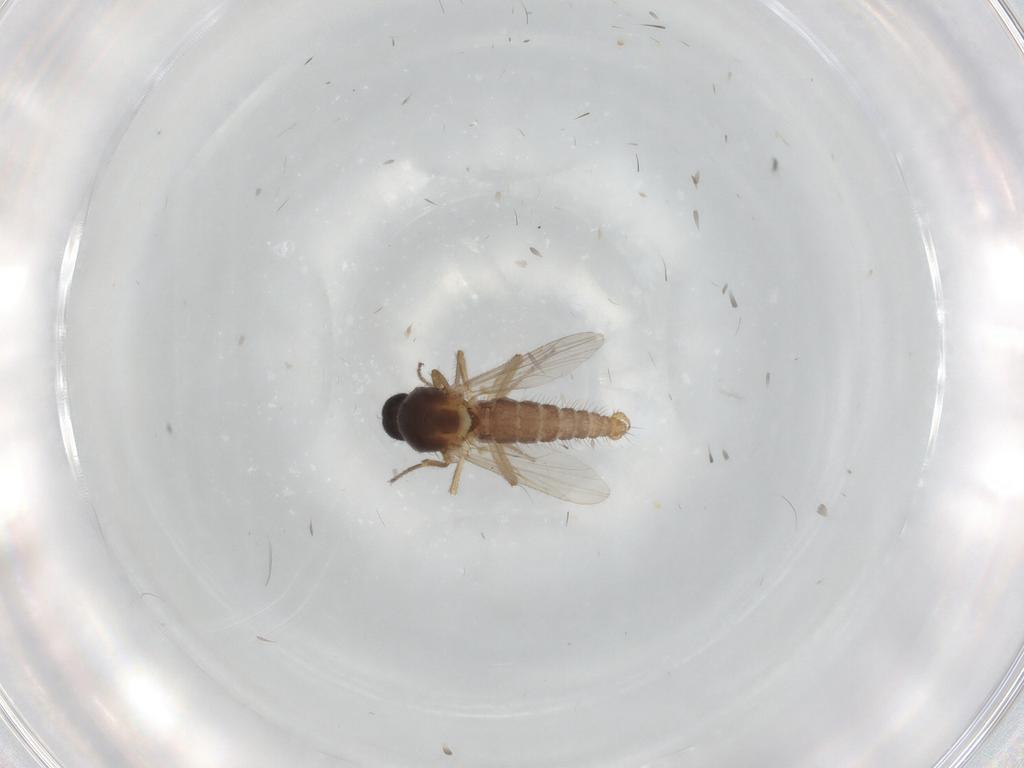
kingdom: Animalia
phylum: Arthropoda
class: Insecta
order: Diptera
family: Ceratopogonidae
